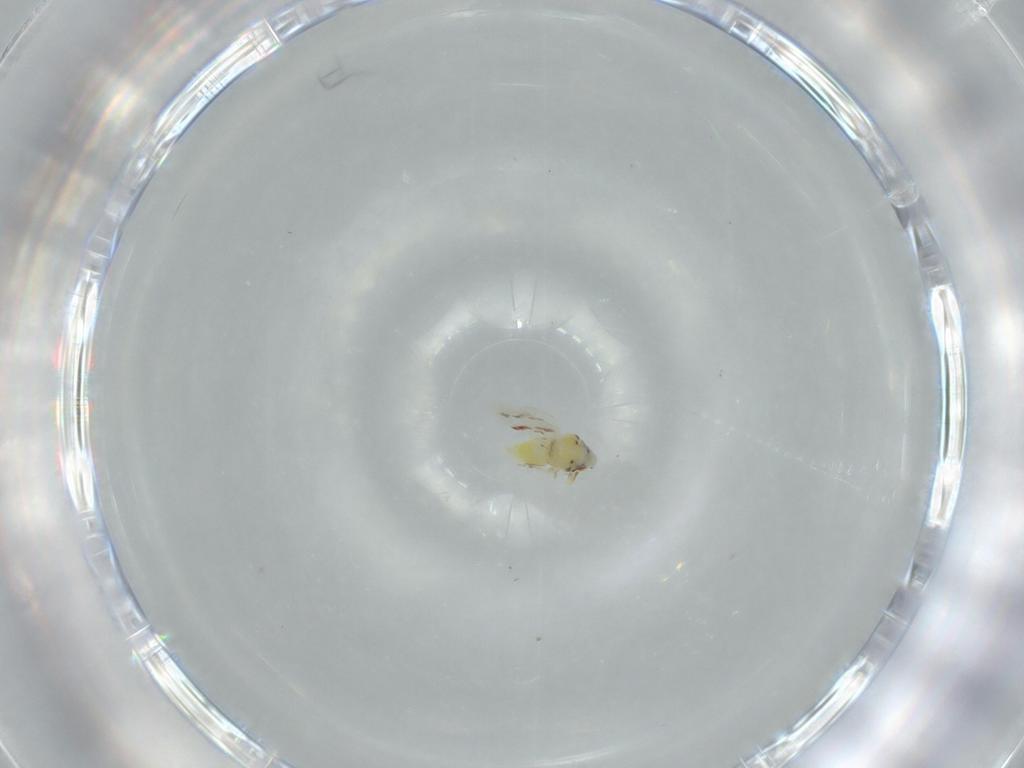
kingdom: Animalia
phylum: Arthropoda
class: Insecta
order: Hemiptera
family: Aleyrodidae
